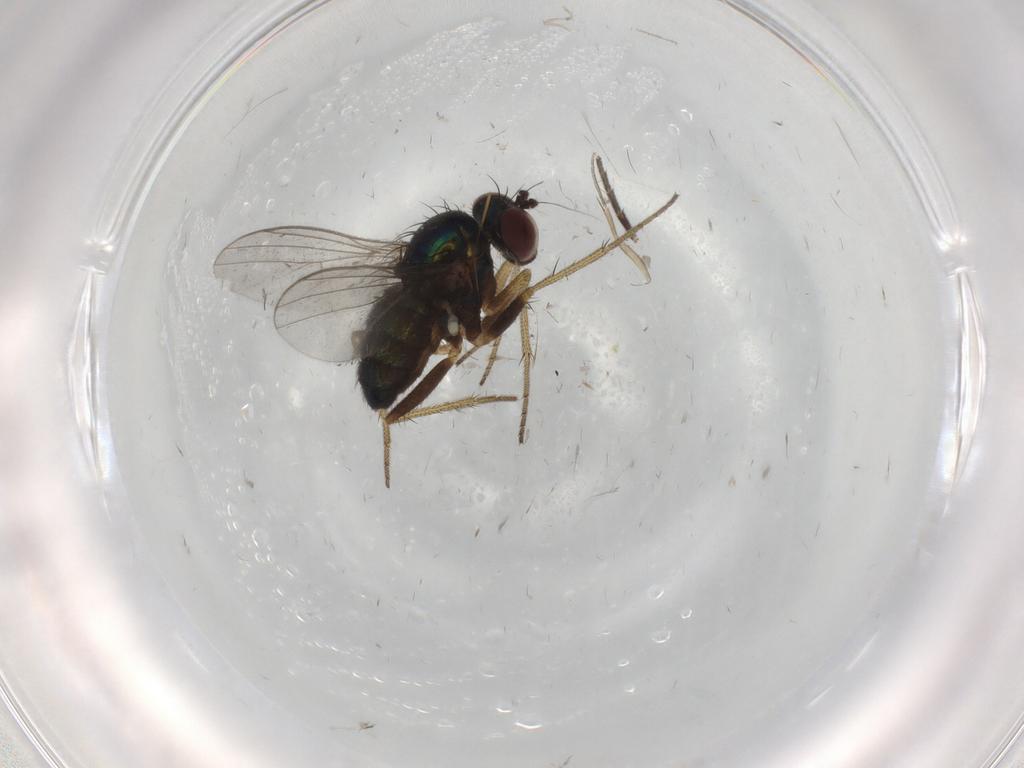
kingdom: Animalia
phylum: Arthropoda
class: Insecta
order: Diptera
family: Phoridae
